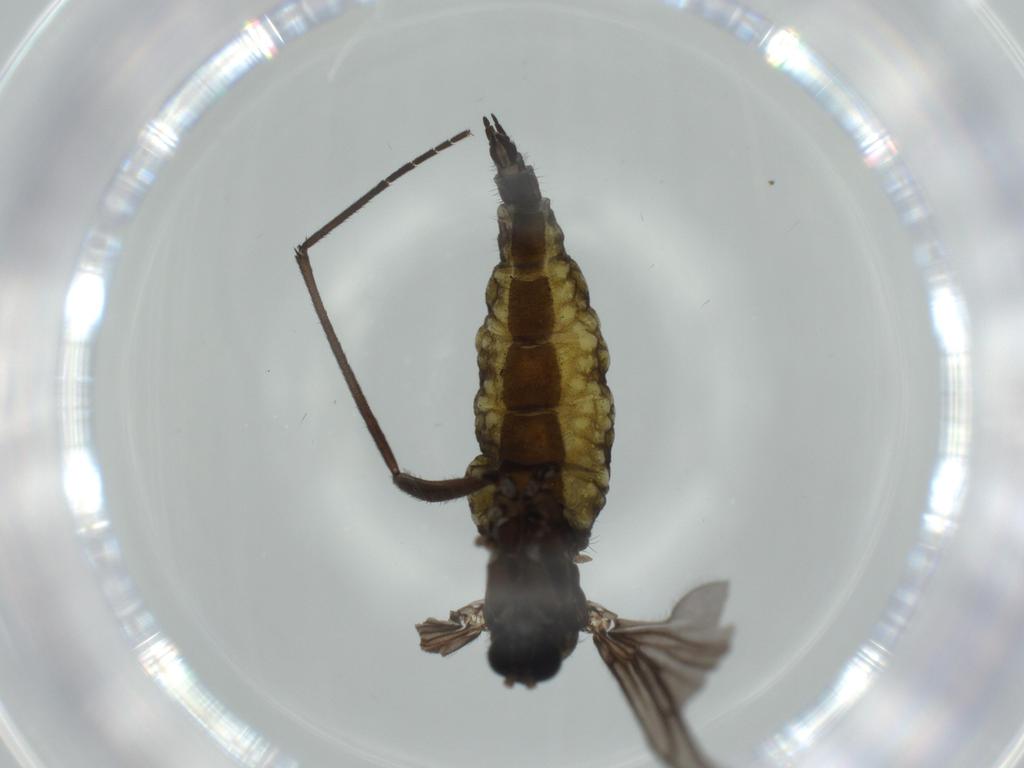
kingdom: Animalia
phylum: Arthropoda
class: Insecta
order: Diptera
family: Sciaridae
